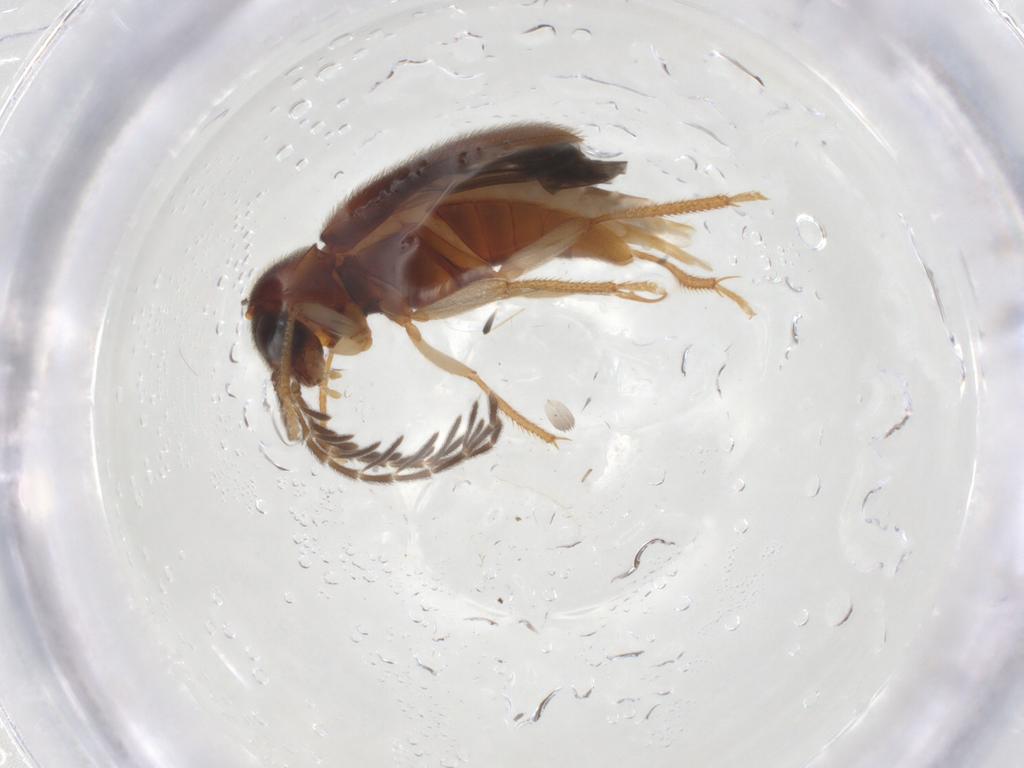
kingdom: Animalia
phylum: Arthropoda
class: Insecta
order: Coleoptera
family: Ptilodactylidae
